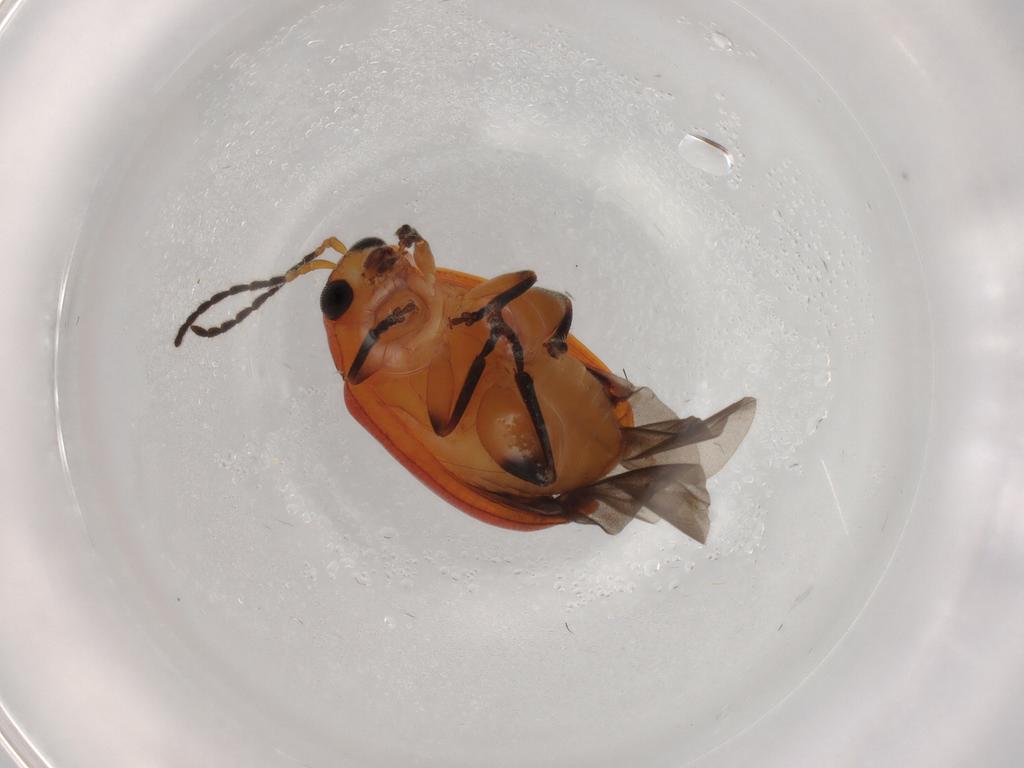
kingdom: Animalia
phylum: Arthropoda
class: Insecta
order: Coleoptera
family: Chrysomelidae
